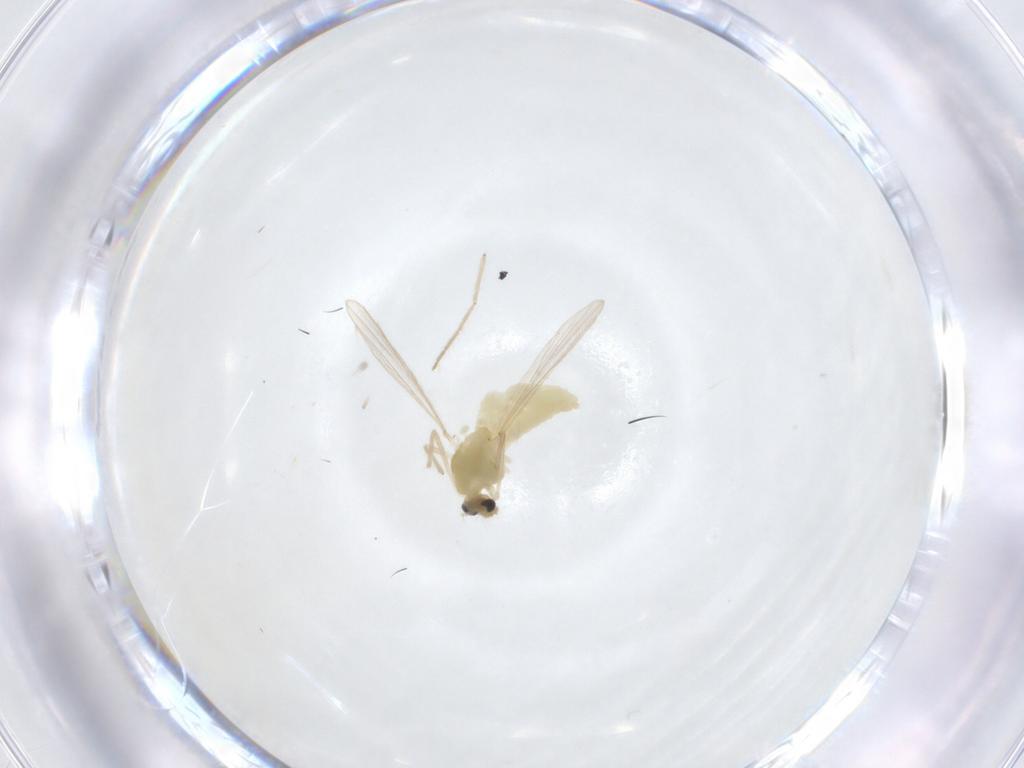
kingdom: Animalia
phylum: Arthropoda
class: Insecta
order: Diptera
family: Chironomidae
